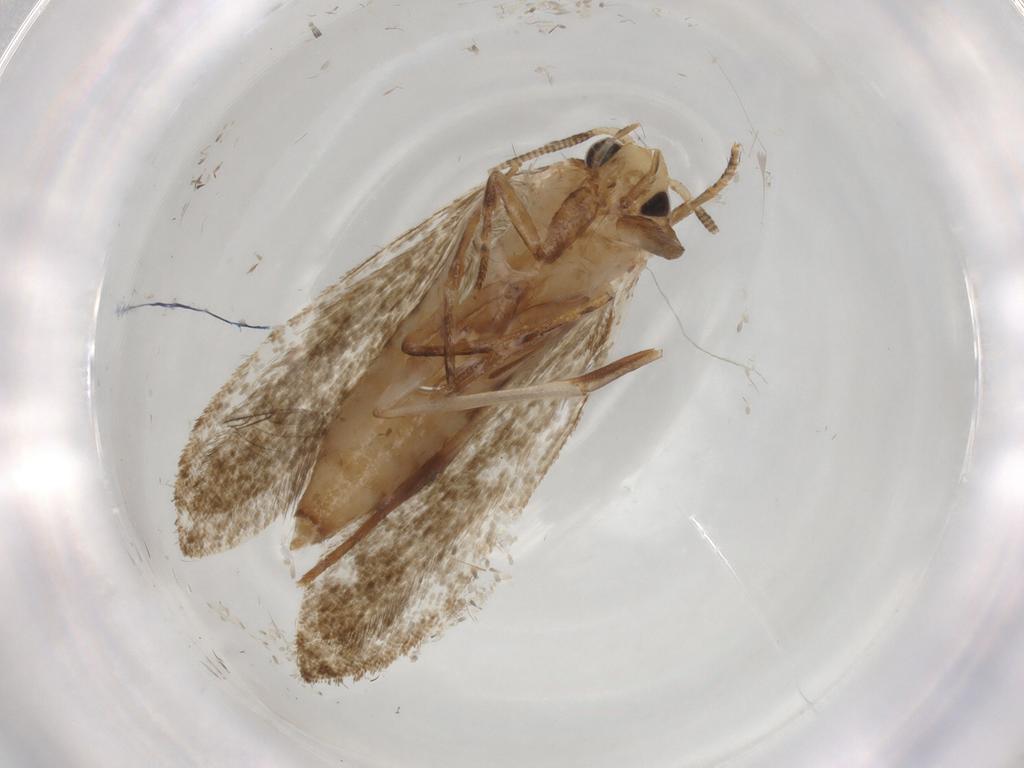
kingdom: Animalia
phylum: Arthropoda
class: Insecta
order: Lepidoptera
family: Tineidae
